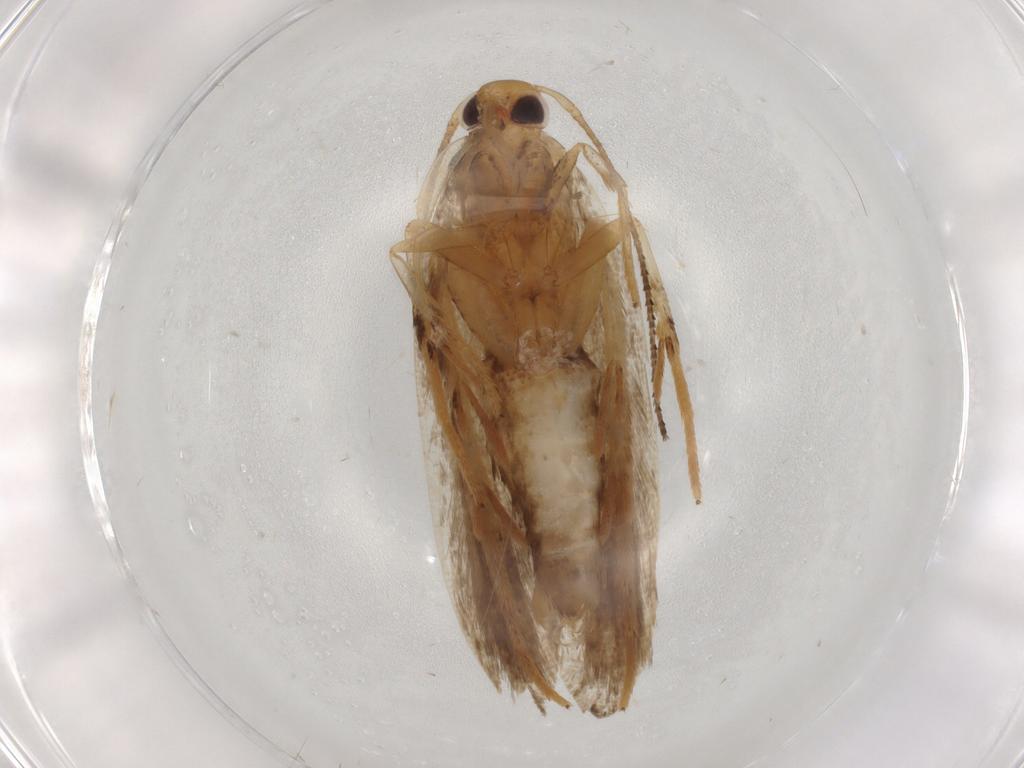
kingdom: Animalia
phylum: Arthropoda
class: Insecta
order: Lepidoptera
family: Gelechiidae
